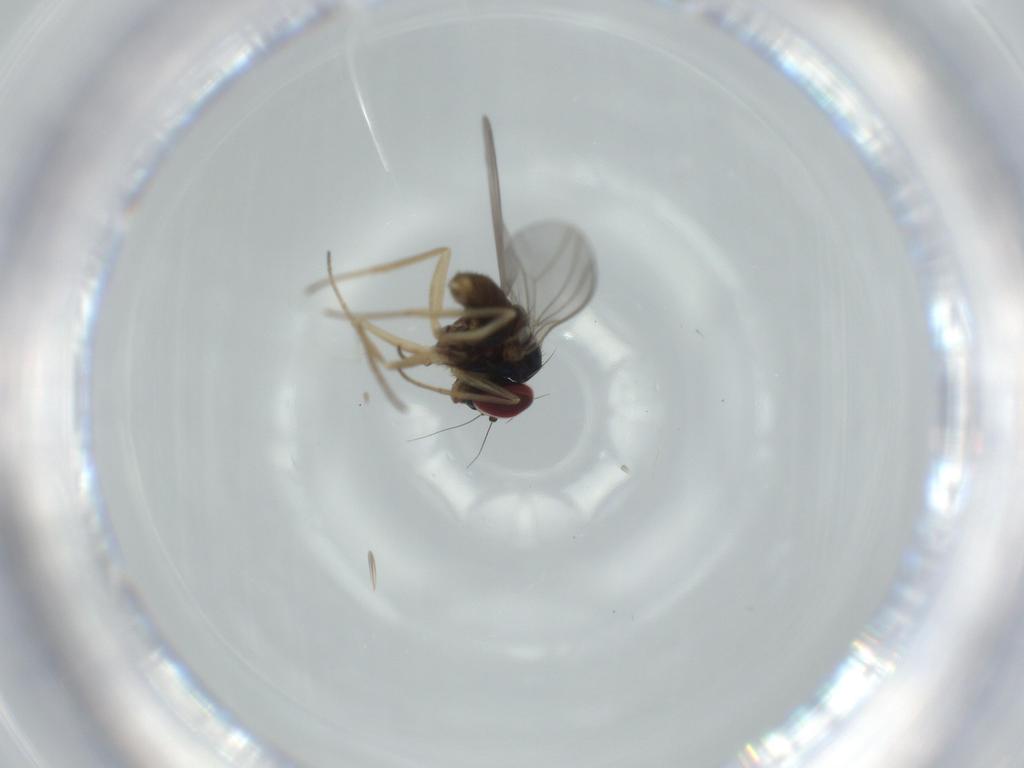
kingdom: Animalia
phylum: Arthropoda
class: Insecta
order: Diptera
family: Dolichopodidae
